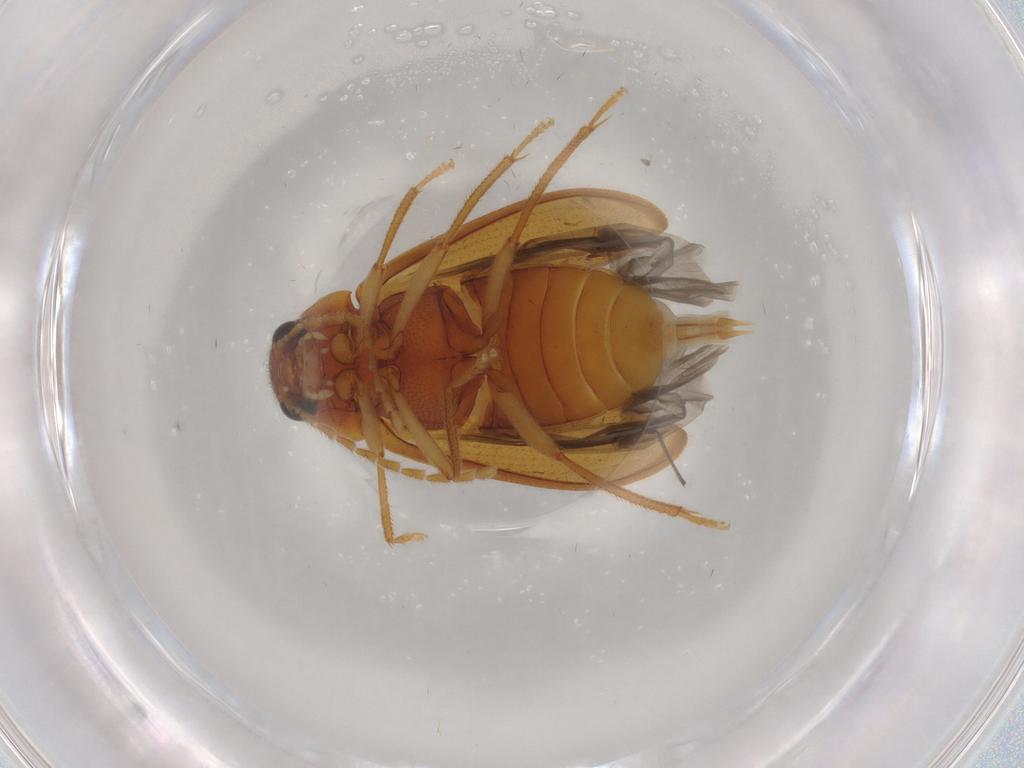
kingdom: Animalia
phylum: Arthropoda
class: Insecta
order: Coleoptera
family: Ptilodactylidae
